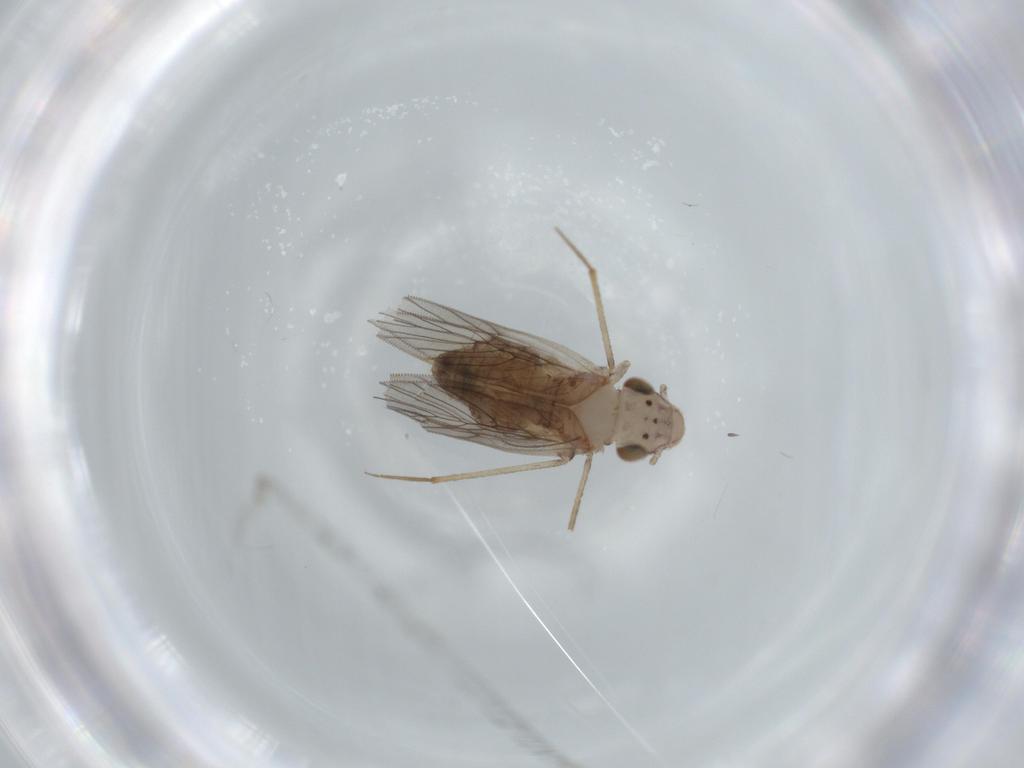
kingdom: Animalia
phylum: Arthropoda
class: Insecta
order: Psocodea
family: Lepidopsocidae
